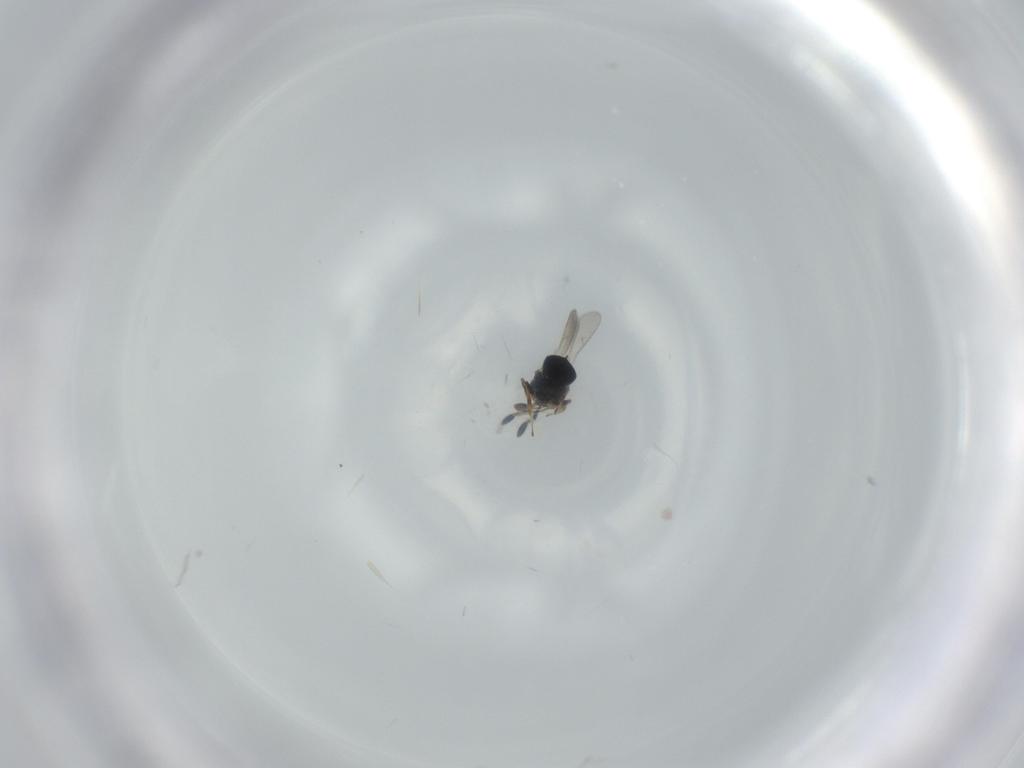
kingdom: Animalia
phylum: Arthropoda
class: Insecta
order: Hymenoptera
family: Scelionidae
